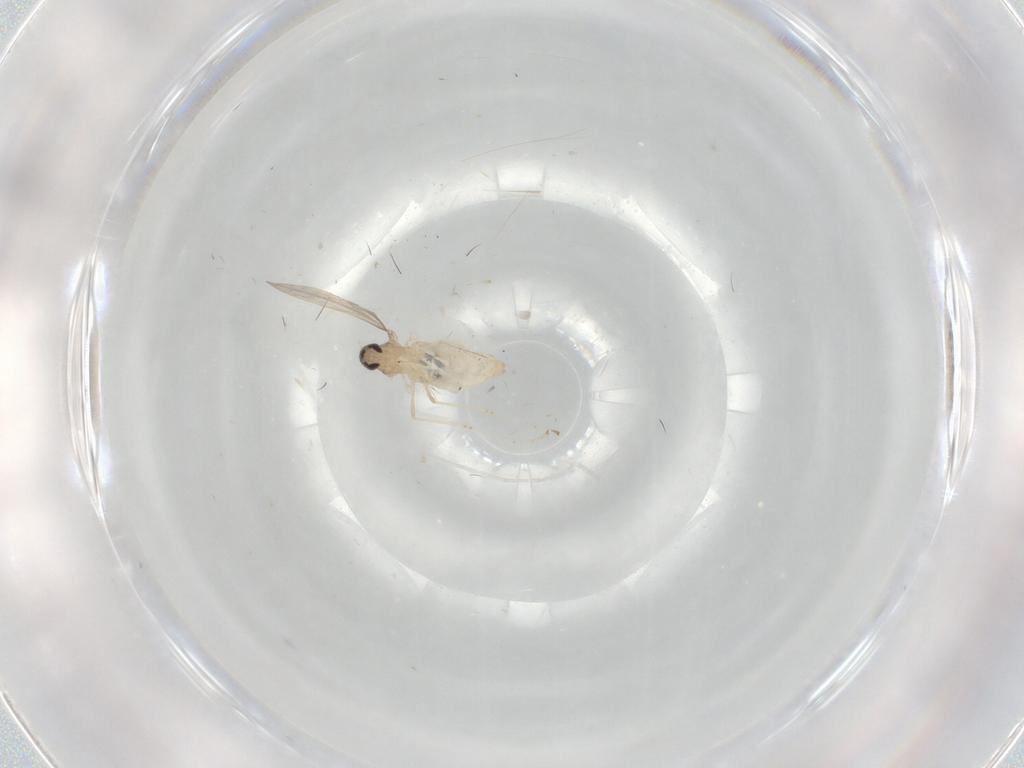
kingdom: Animalia
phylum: Arthropoda
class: Insecta
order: Diptera
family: Cecidomyiidae
